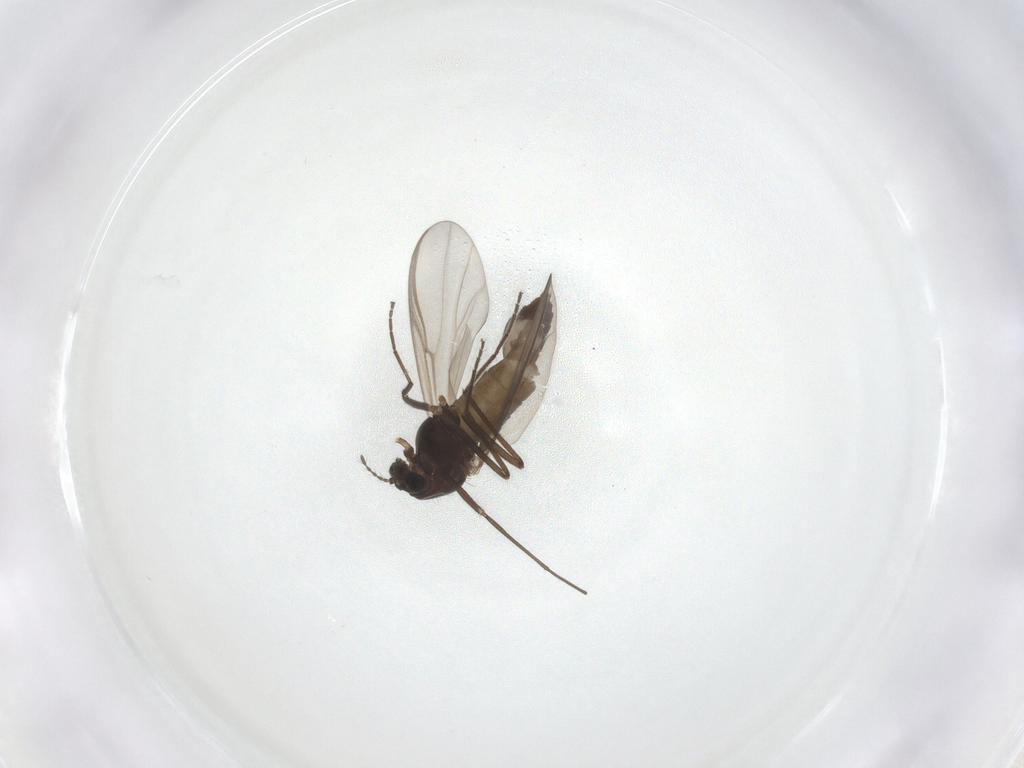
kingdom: Animalia
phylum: Arthropoda
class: Insecta
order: Diptera
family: Chironomidae
